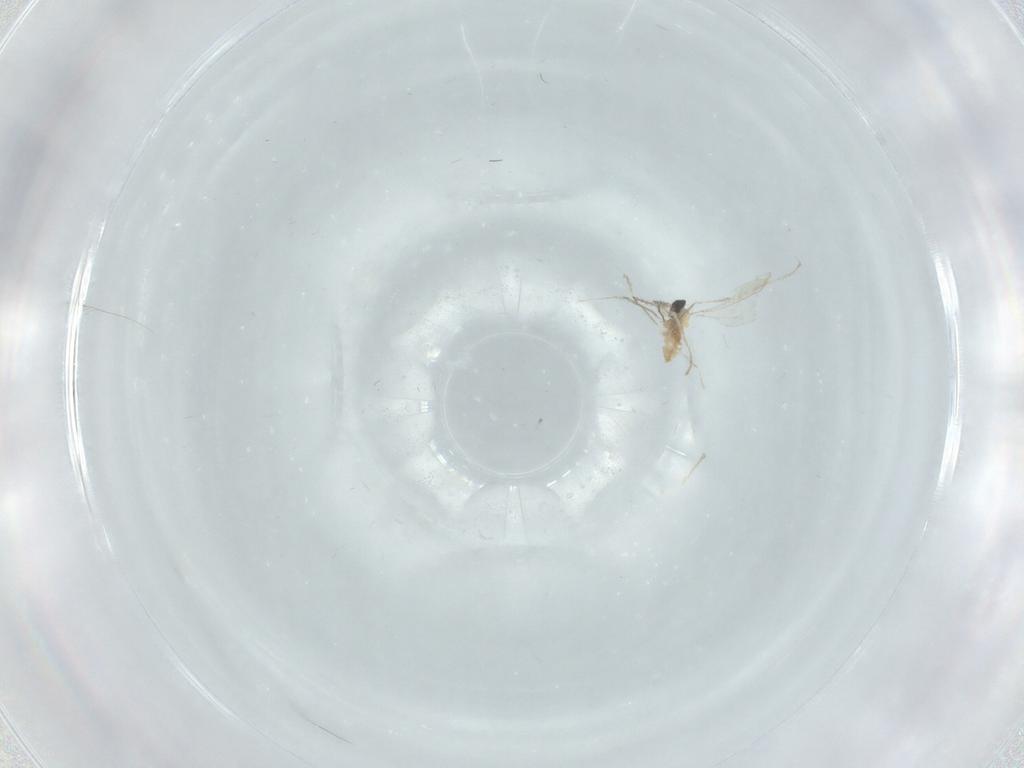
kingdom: Animalia
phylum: Arthropoda
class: Insecta
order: Diptera
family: Cecidomyiidae
